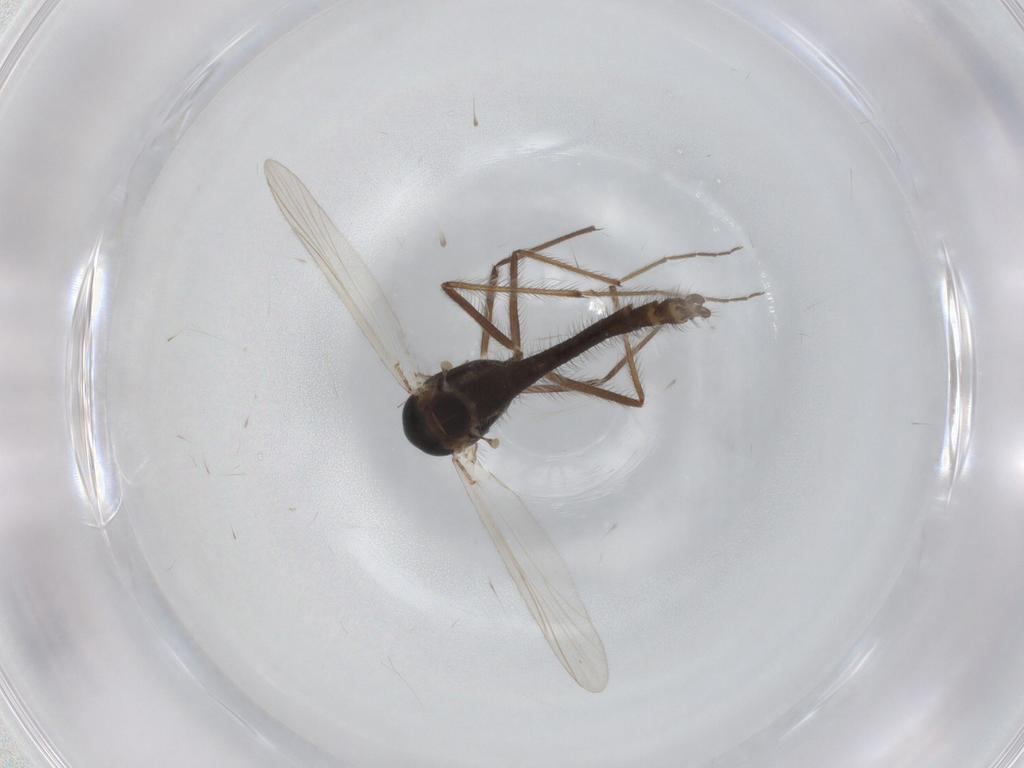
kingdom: Animalia
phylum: Arthropoda
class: Insecta
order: Diptera
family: Chironomidae
